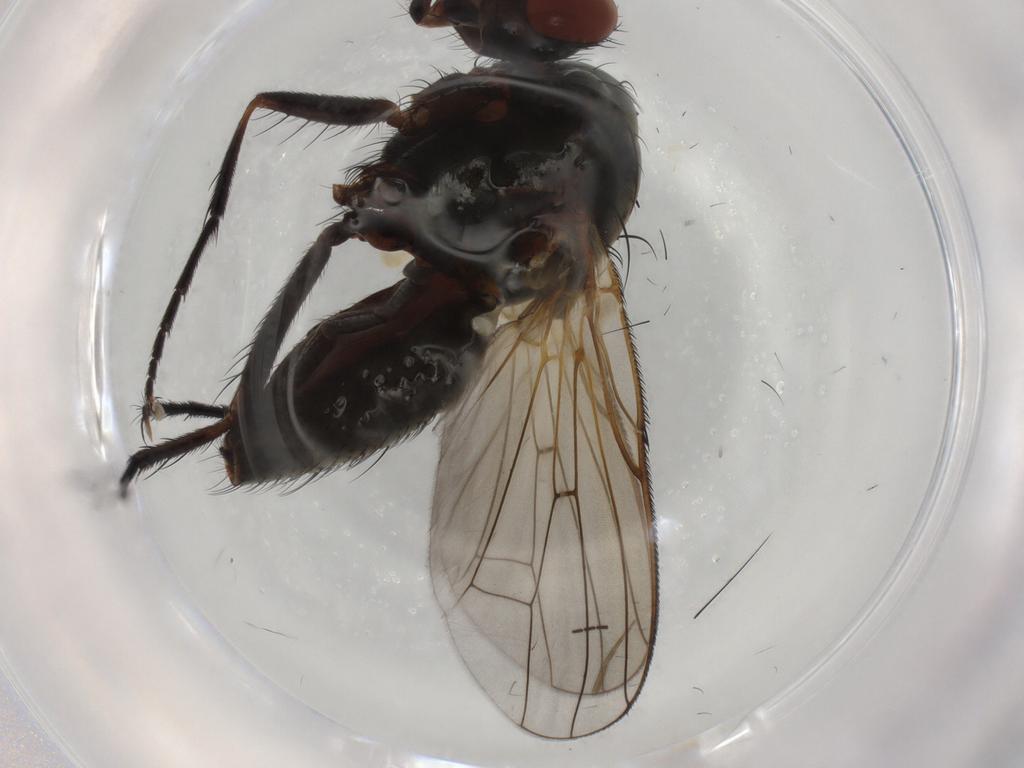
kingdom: Animalia
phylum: Arthropoda
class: Insecta
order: Diptera
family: Anthomyiidae
